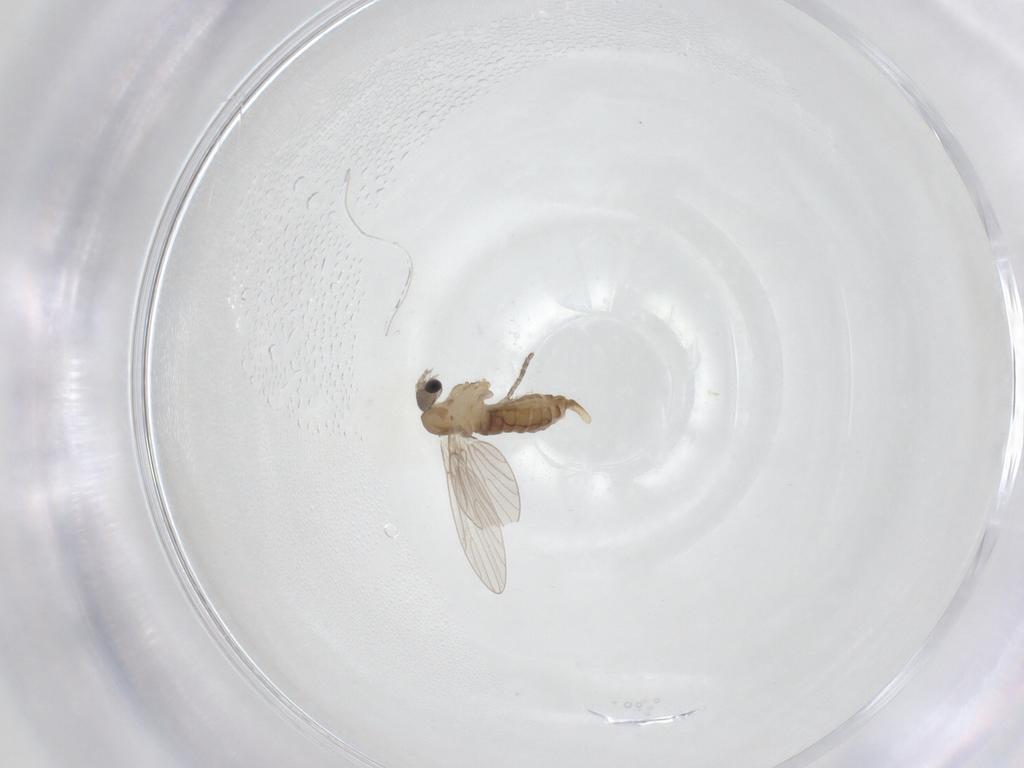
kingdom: Animalia
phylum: Arthropoda
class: Insecta
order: Diptera
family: Psychodidae
